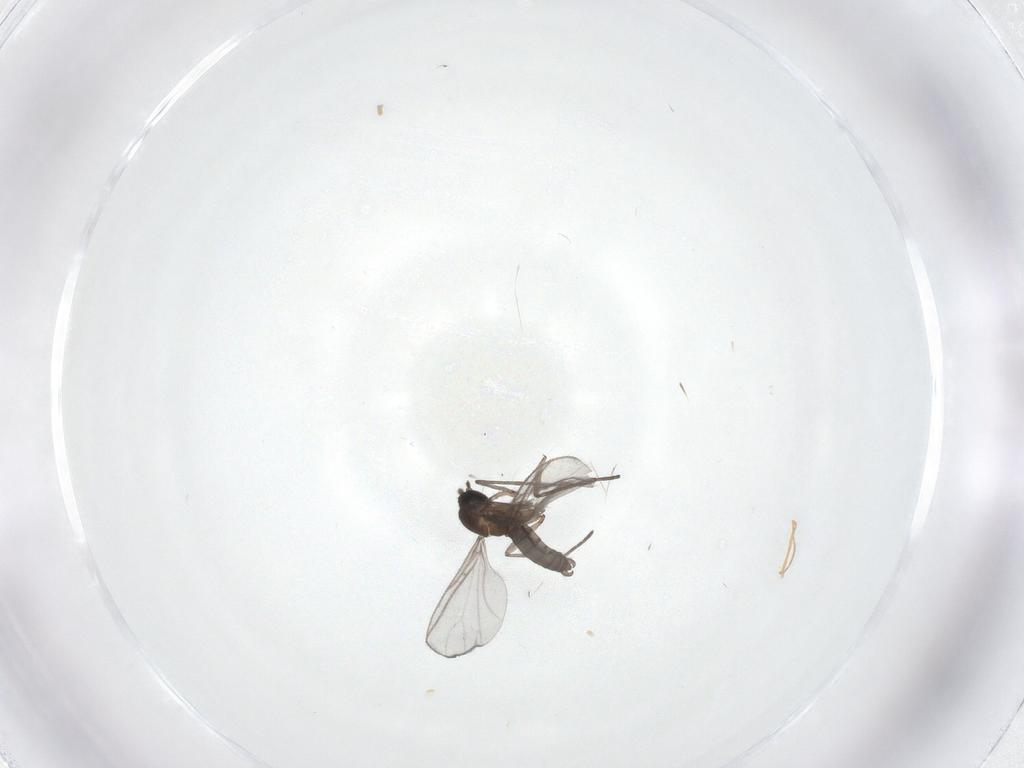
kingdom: Animalia
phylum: Arthropoda
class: Insecta
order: Diptera
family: Sciaridae
